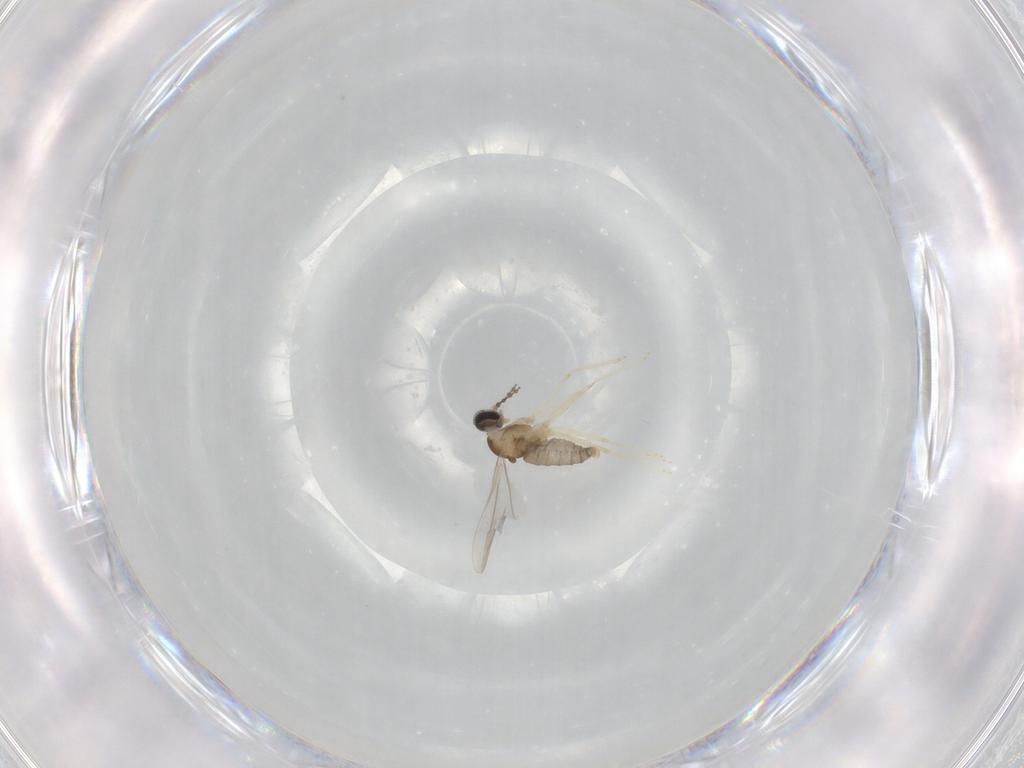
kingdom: Animalia
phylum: Arthropoda
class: Insecta
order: Diptera
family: Cecidomyiidae
